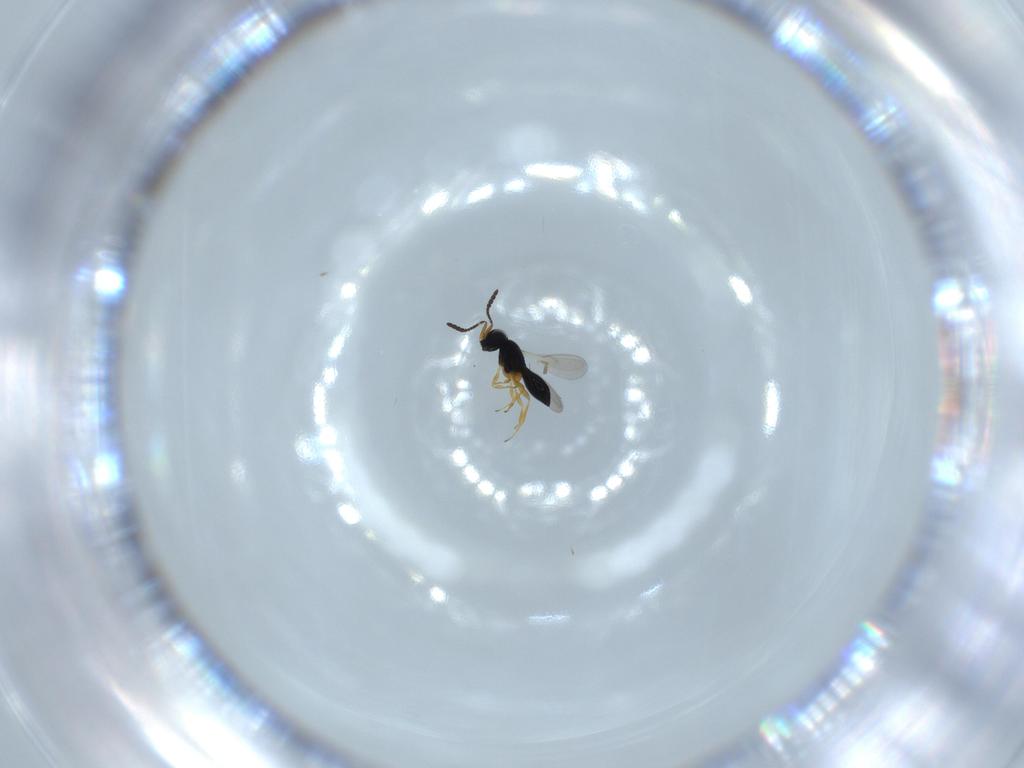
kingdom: Animalia
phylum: Arthropoda
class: Insecta
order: Hymenoptera
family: Scelionidae
